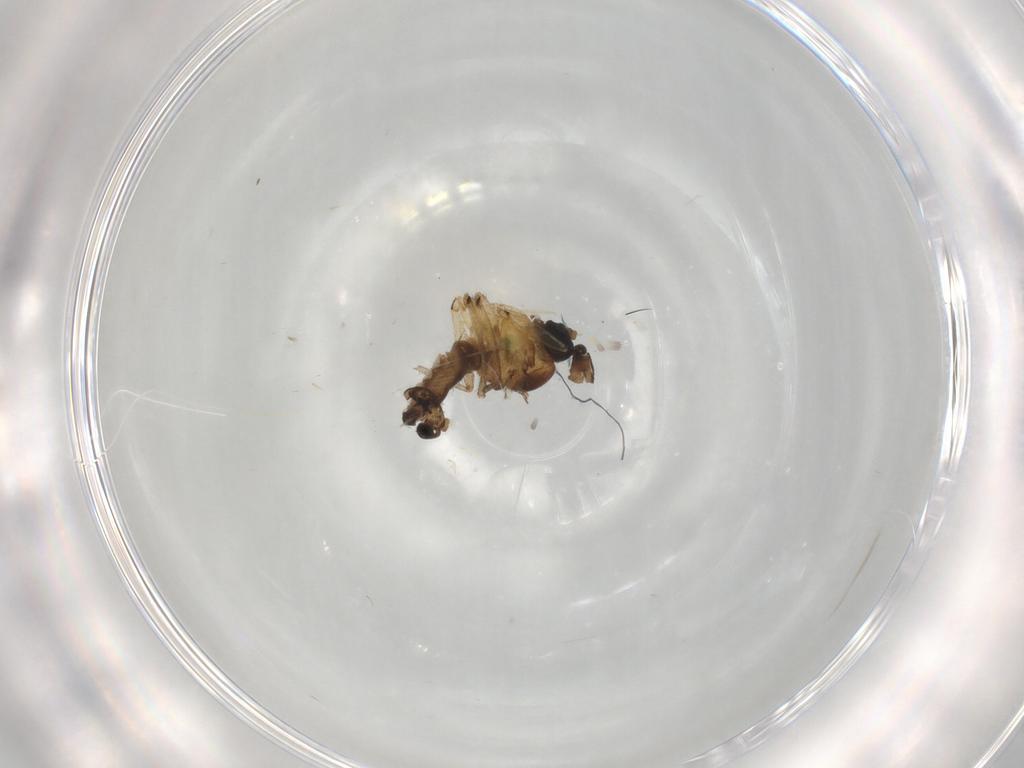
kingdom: Animalia
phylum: Arthropoda
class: Insecta
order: Diptera
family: Sciaridae
